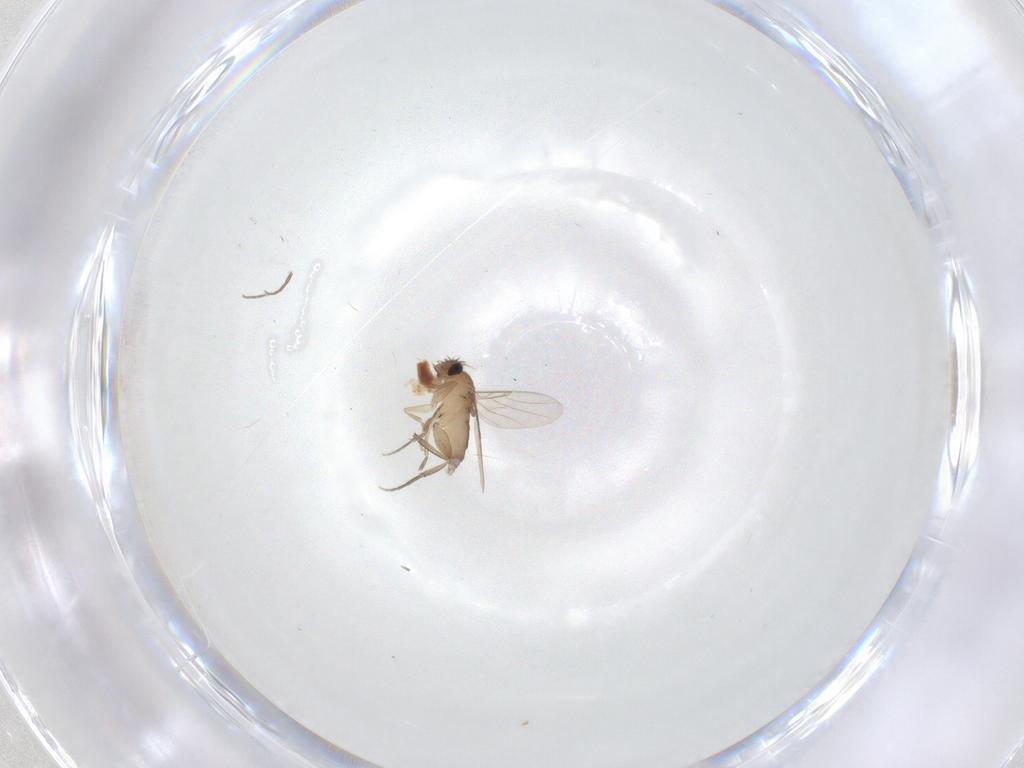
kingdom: Animalia
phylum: Arthropoda
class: Insecta
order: Diptera
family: Phoridae
